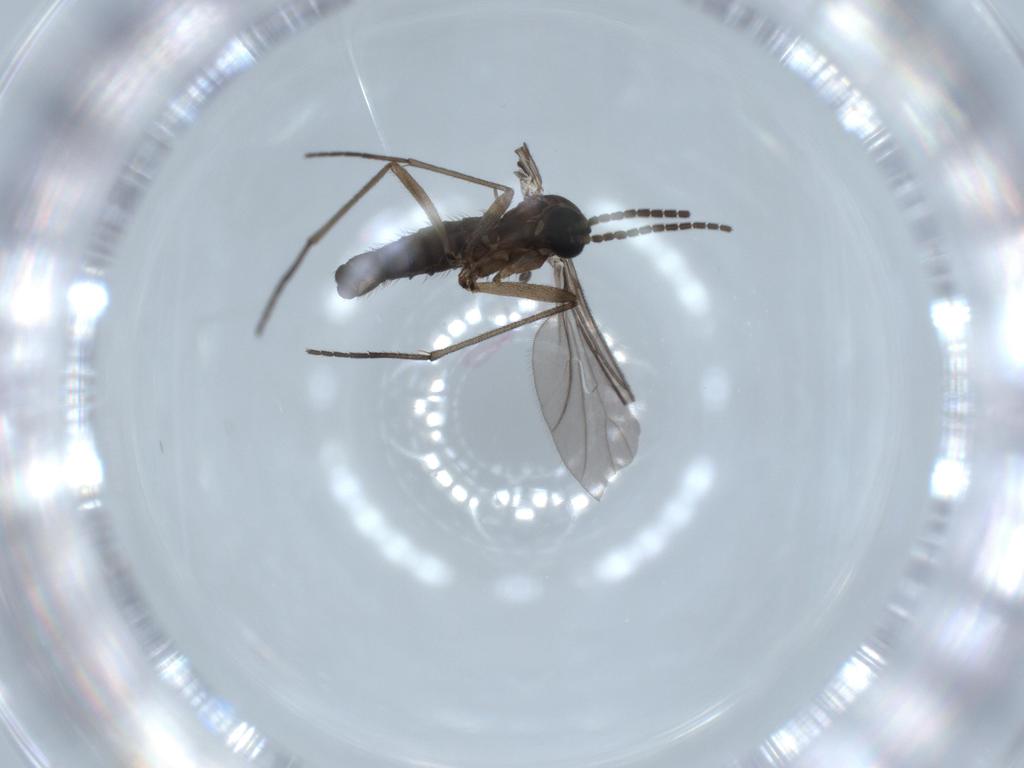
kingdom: Animalia
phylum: Arthropoda
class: Insecta
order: Diptera
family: Sciaridae
